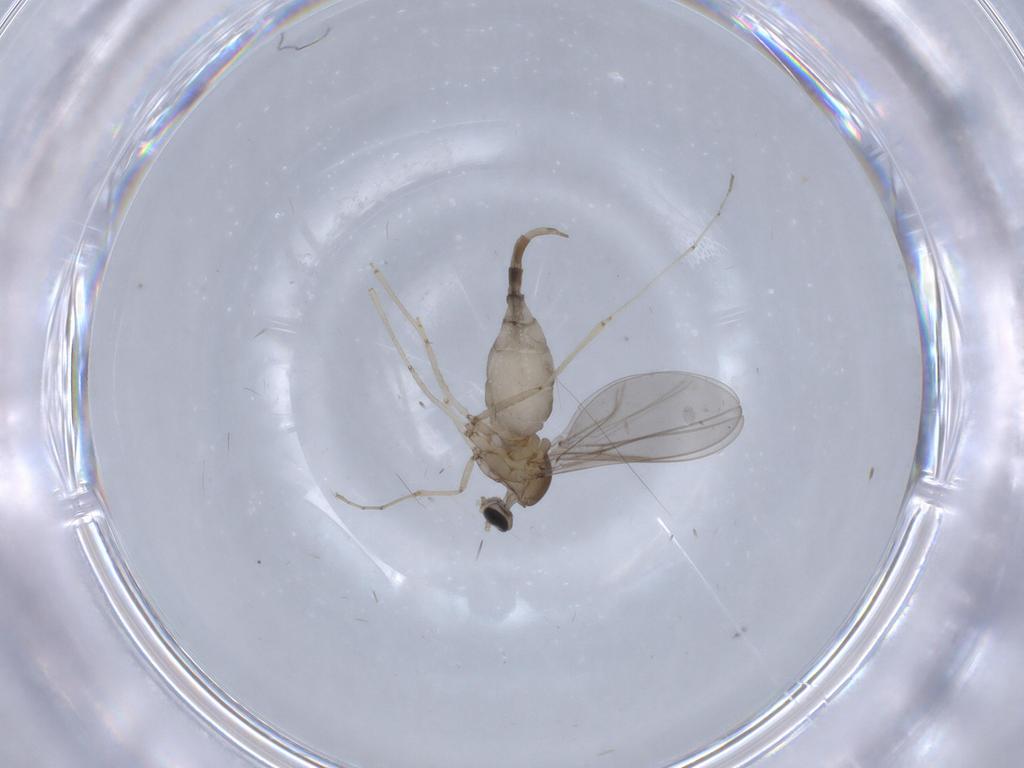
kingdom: Animalia
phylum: Arthropoda
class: Insecta
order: Diptera
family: Cecidomyiidae
